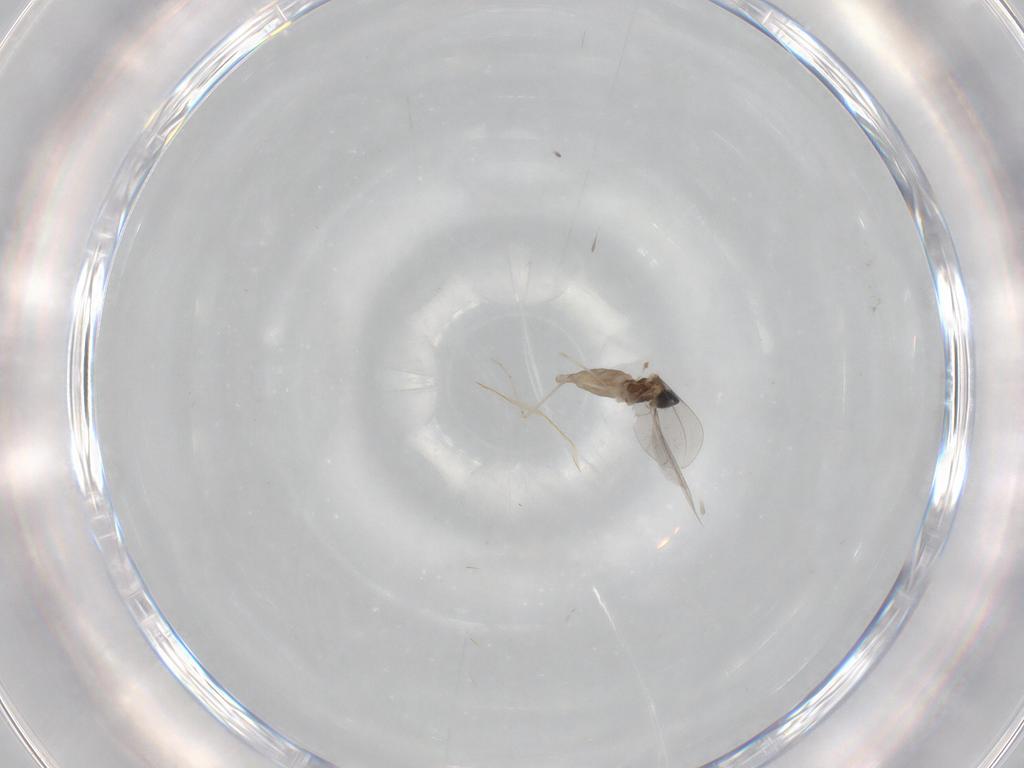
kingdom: Animalia
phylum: Arthropoda
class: Insecta
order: Diptera
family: Cecidomyiidae
